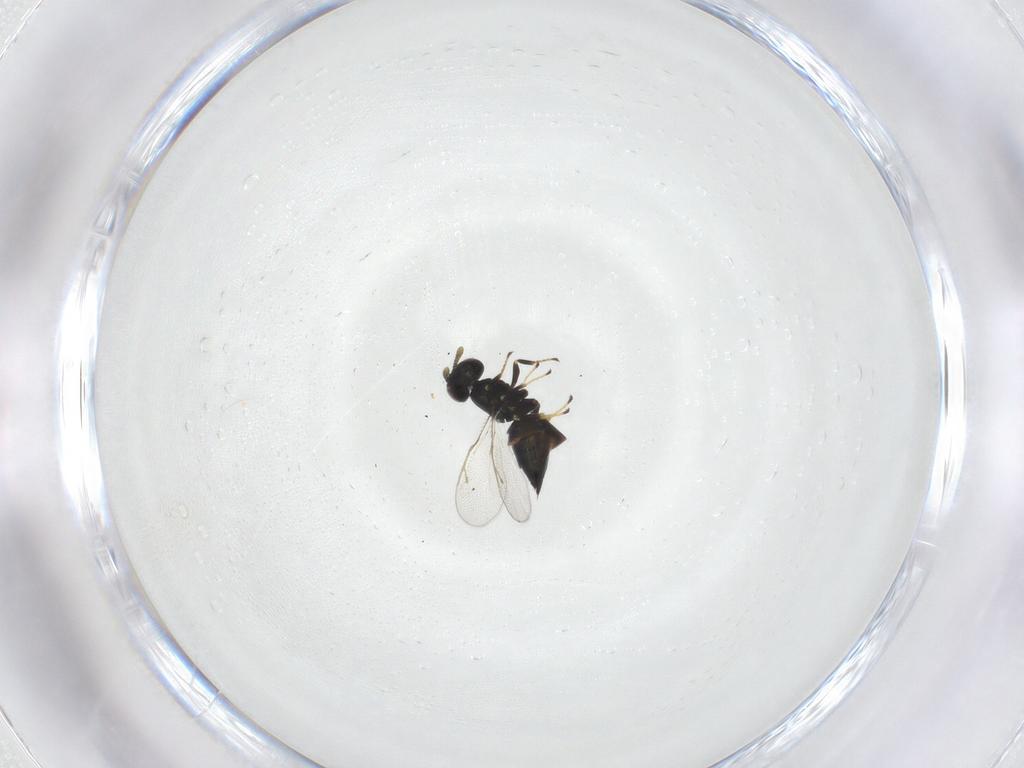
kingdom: Animalia
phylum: Arthropoda
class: Insecta
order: Hymenoptera
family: Pteromalidae
